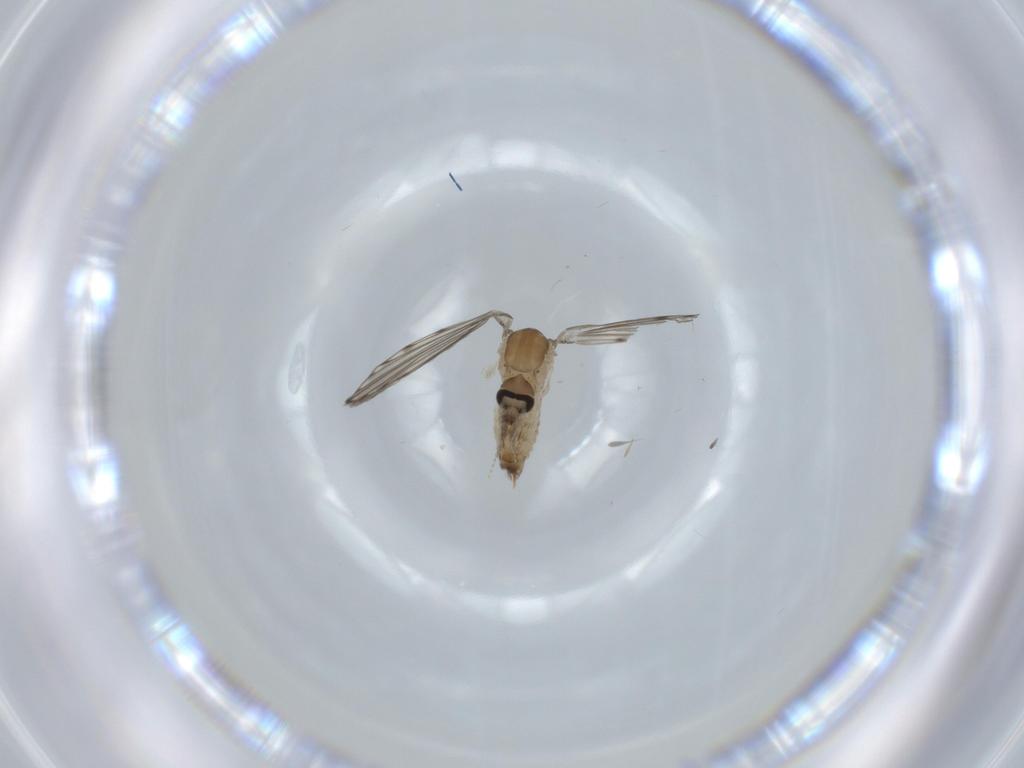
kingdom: Animalia
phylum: Arthropoda
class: Insecta
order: Diptera
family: Psychodidae
